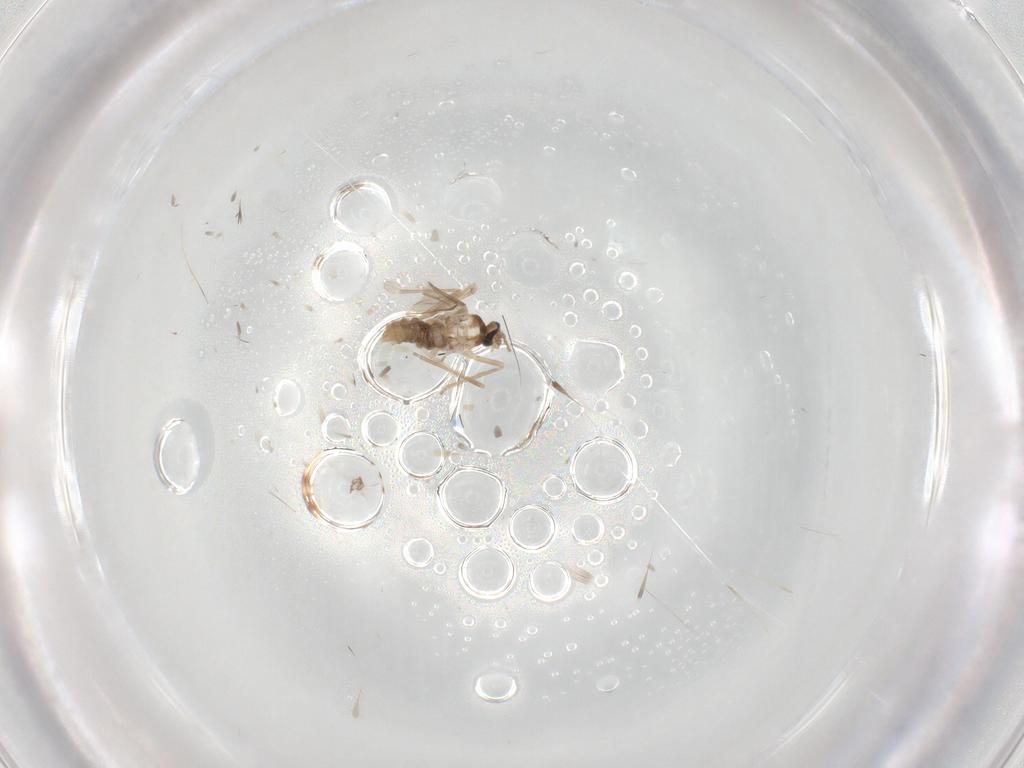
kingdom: Animalia
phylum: Arthropoda
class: Insecta
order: Diptera
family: Cecidomyiidae
